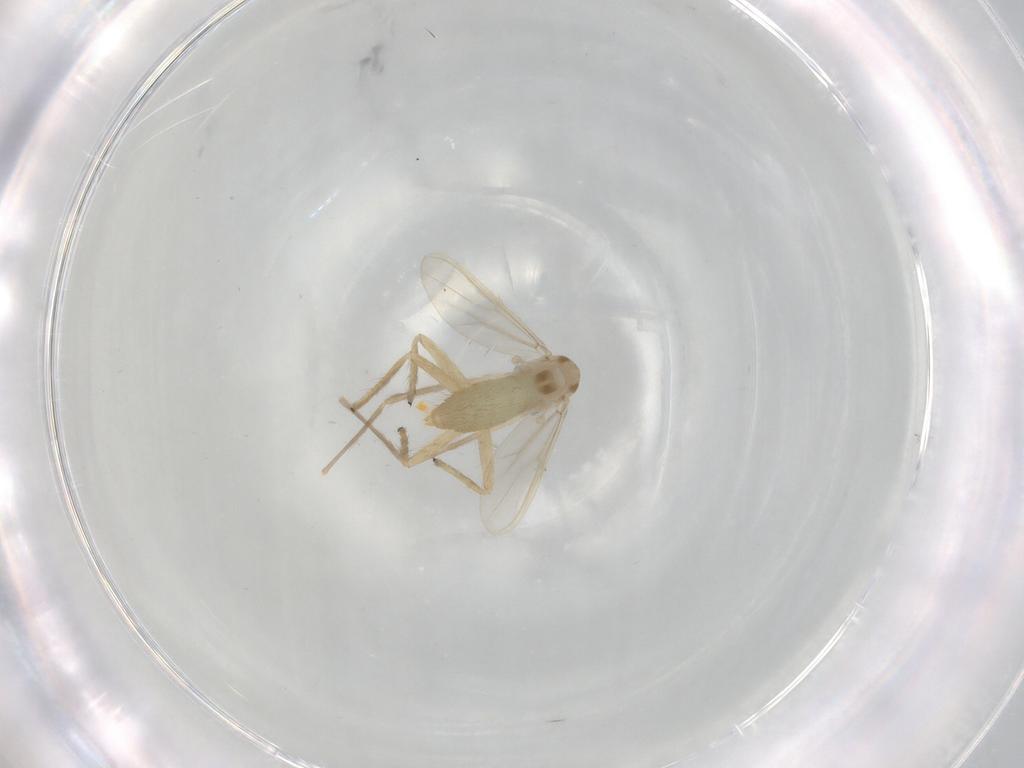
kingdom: Animalia
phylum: Arthropoda
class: Insecta
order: Diptera
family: Chironomidae
